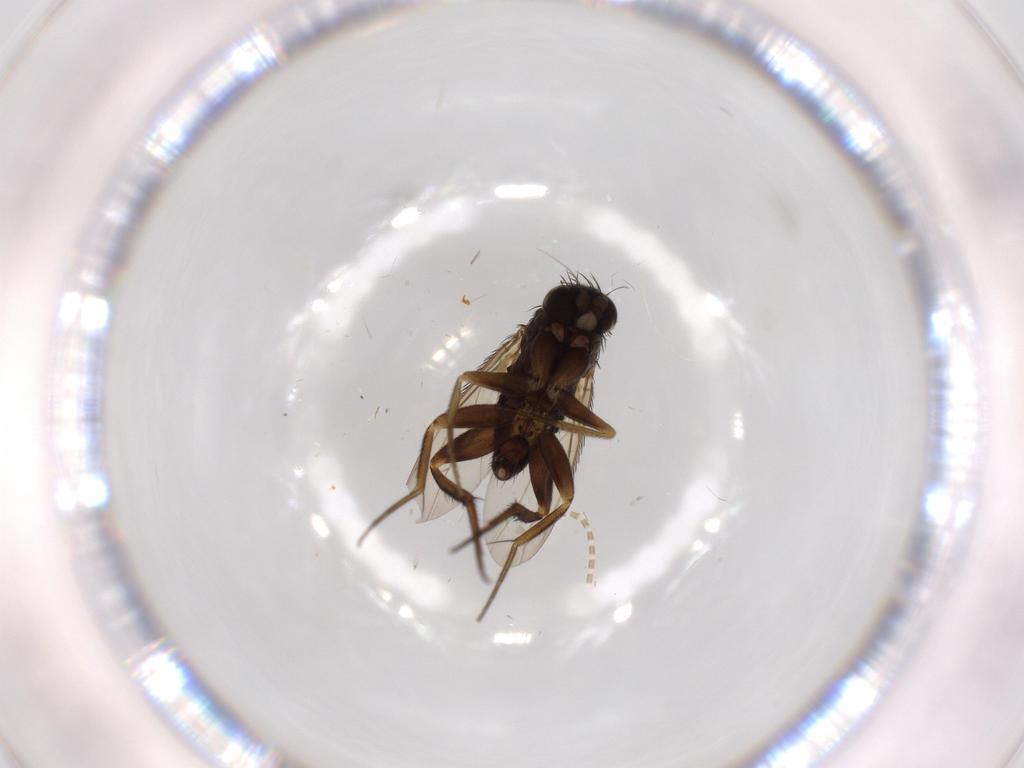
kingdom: Animalia
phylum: Arthropoda
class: Insecta
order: Diptera
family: Phoridae
